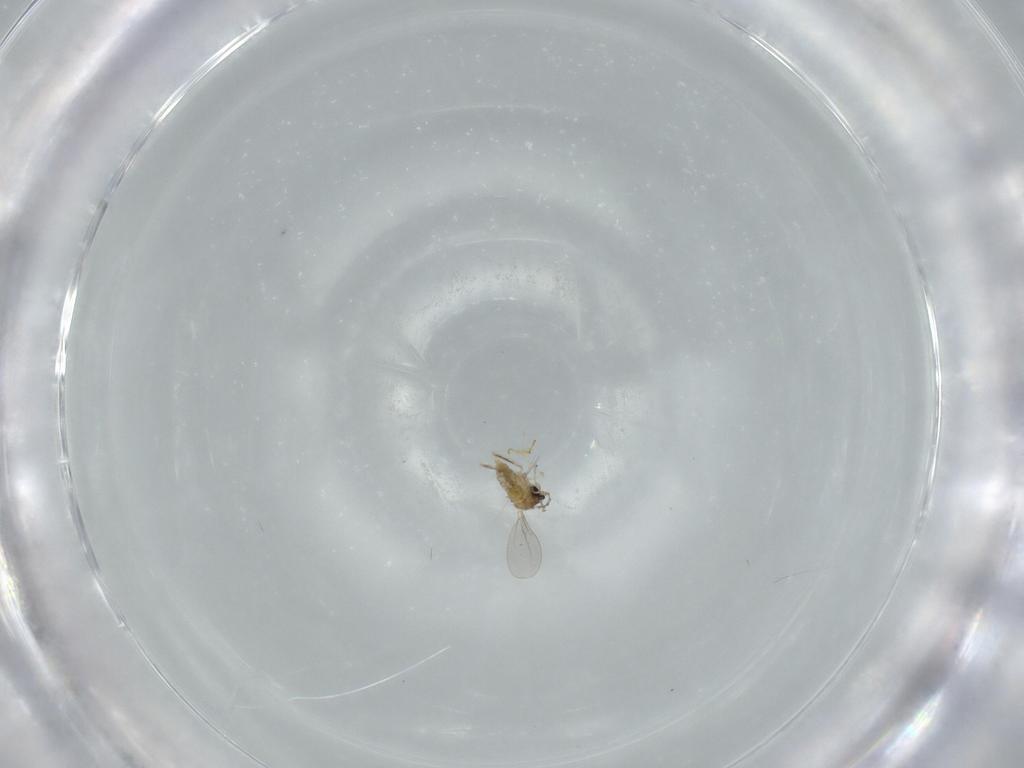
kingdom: Animalia
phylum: Arthropoda
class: Insecta
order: Diptera
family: Cecidomyiidae
